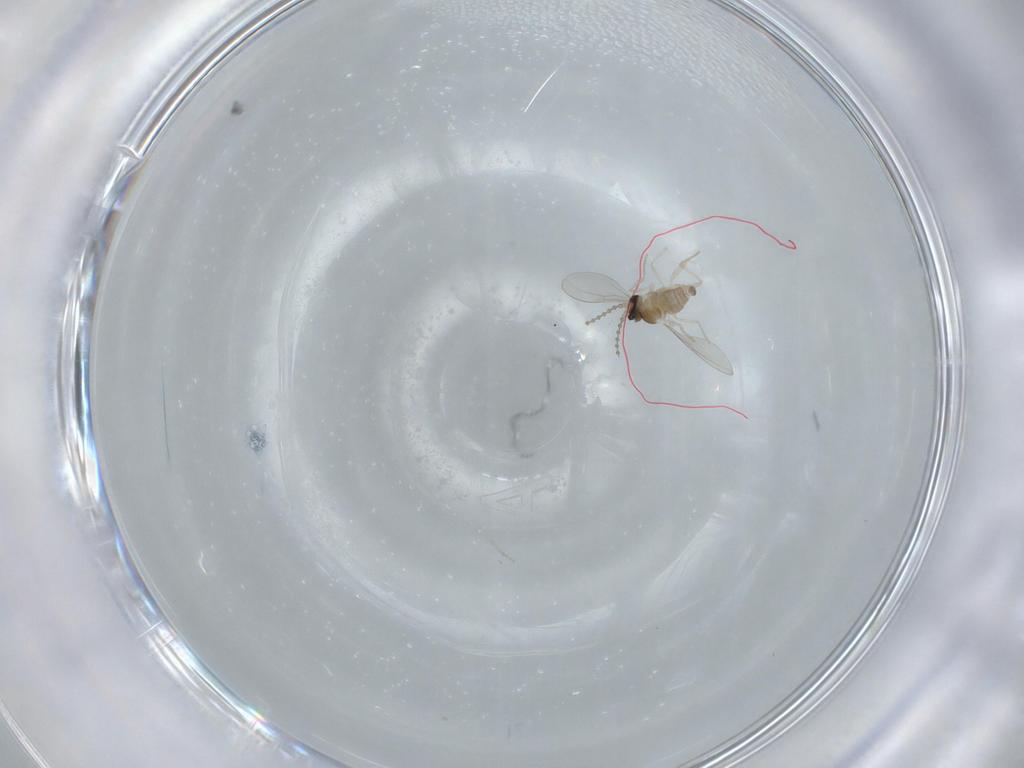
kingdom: Animalia
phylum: Arthropoda
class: Insecta
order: Diptera
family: Cecidomyiidae
